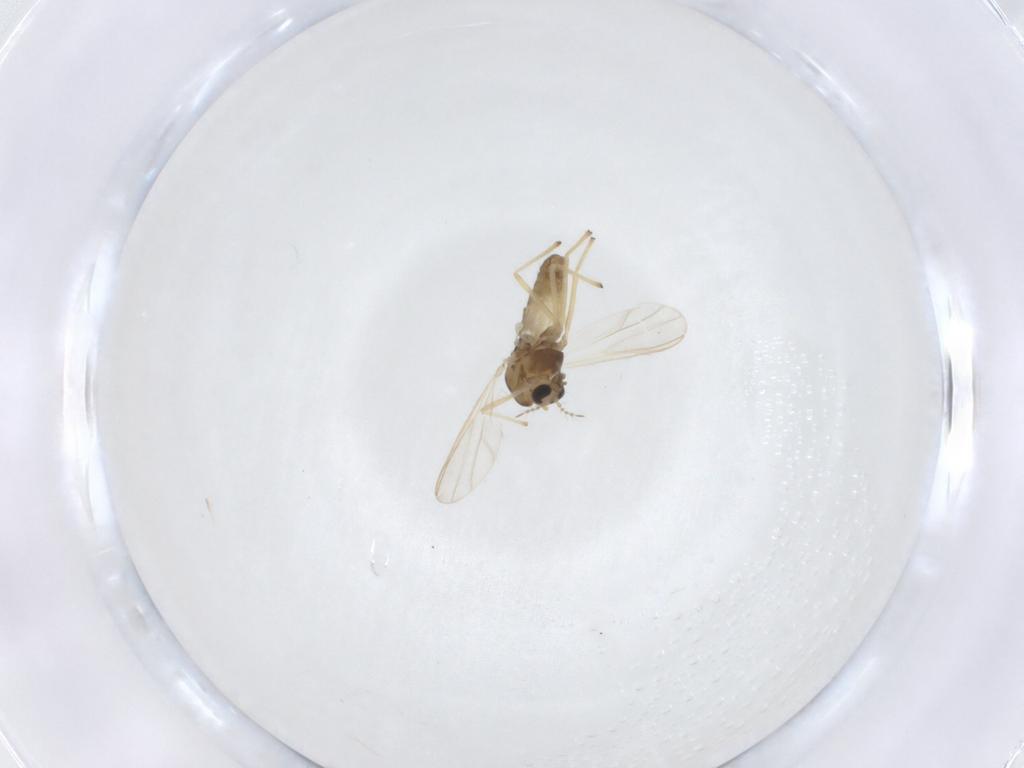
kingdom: Animalia
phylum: Arthropoda
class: Insecta
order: Diptera
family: Chironomidae
